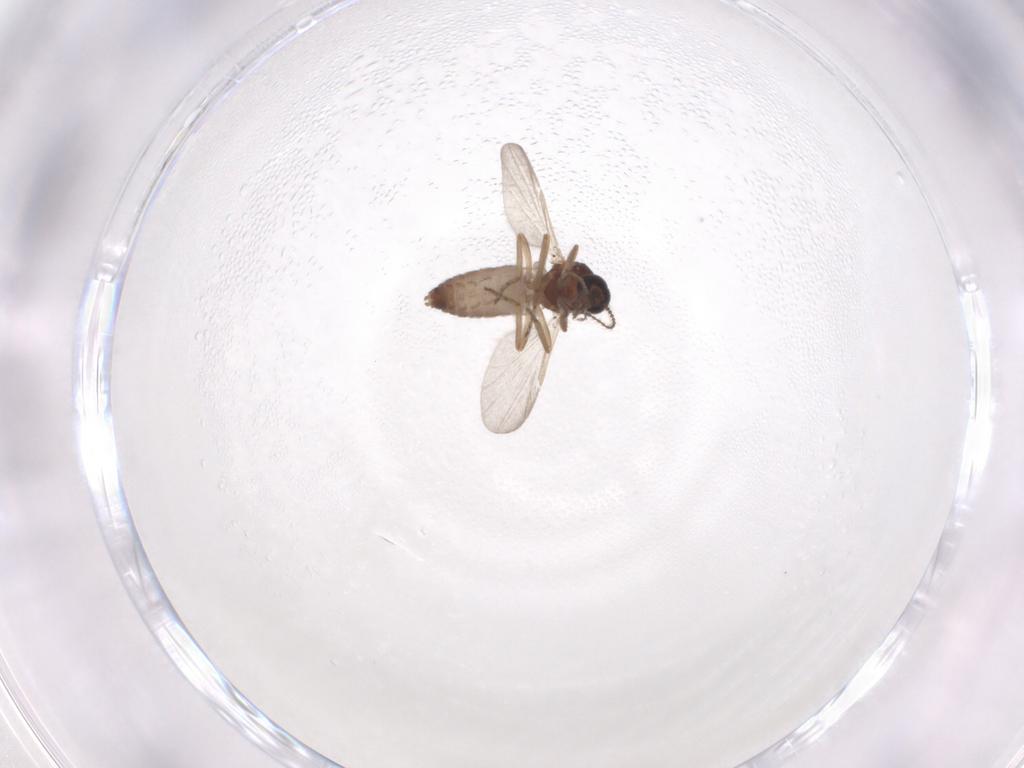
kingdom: Animalia
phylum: Arthropoda
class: Insecta
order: Diptera
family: Ceratopogonidae
